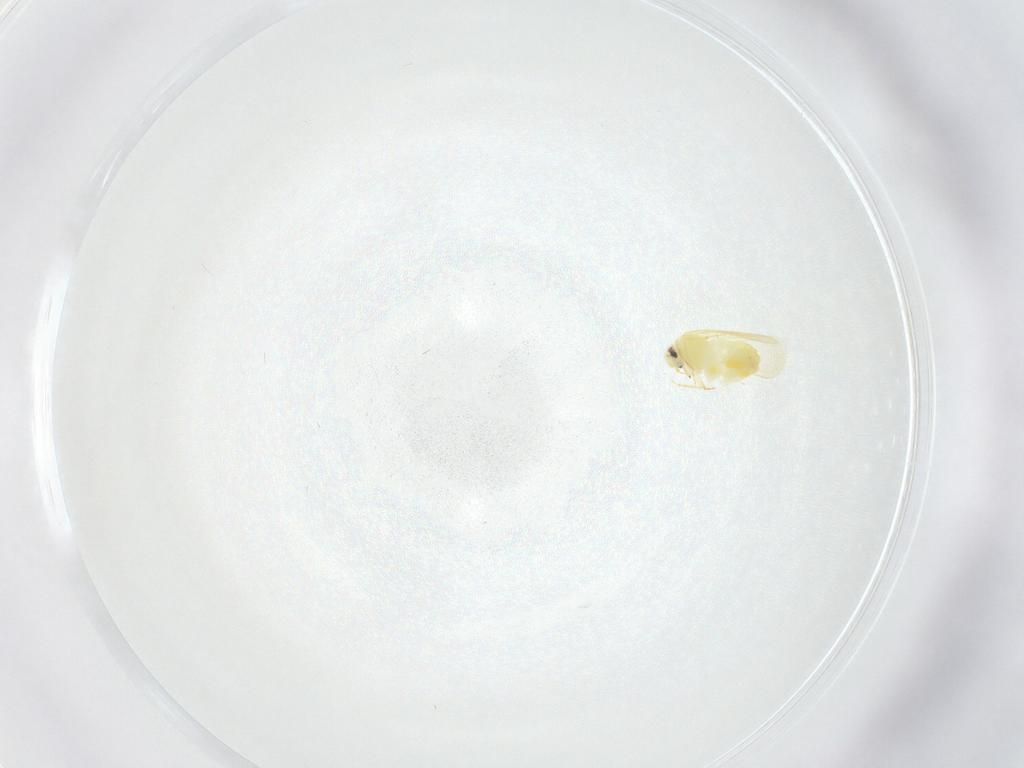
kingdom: Animalia
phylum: Arthropoda
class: Insecta
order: Hemiptera
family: Aleyrodidae
